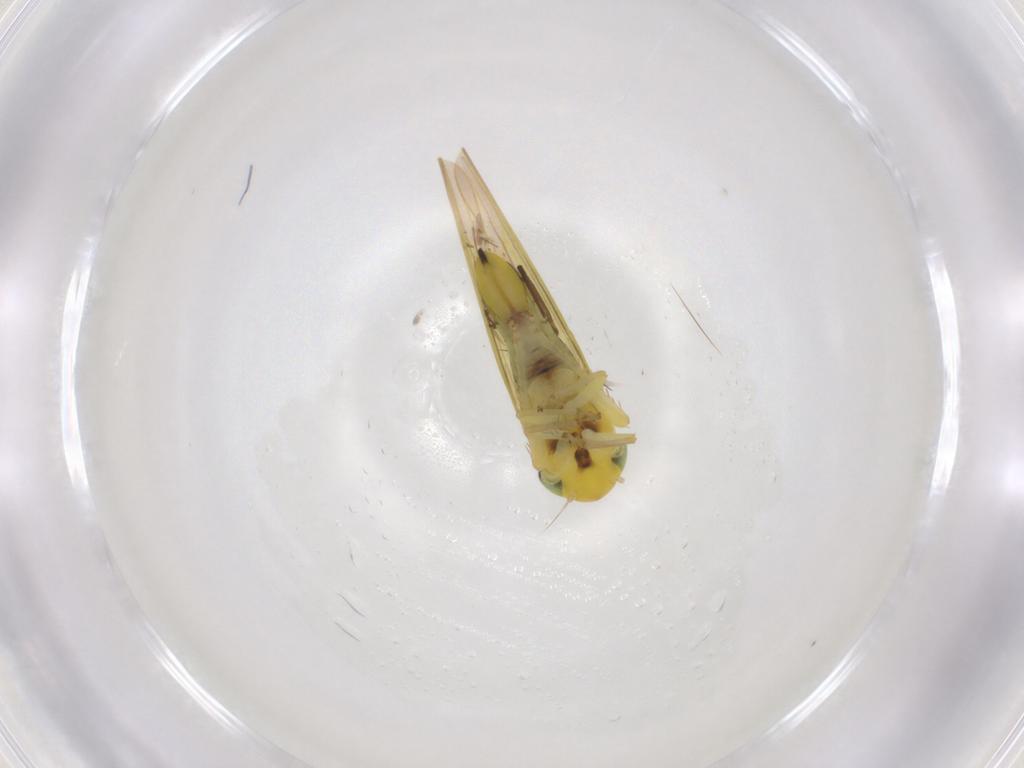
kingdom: Animalia
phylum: Arthropoda
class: Insecta
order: Hemiptera
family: Cicadellidae
